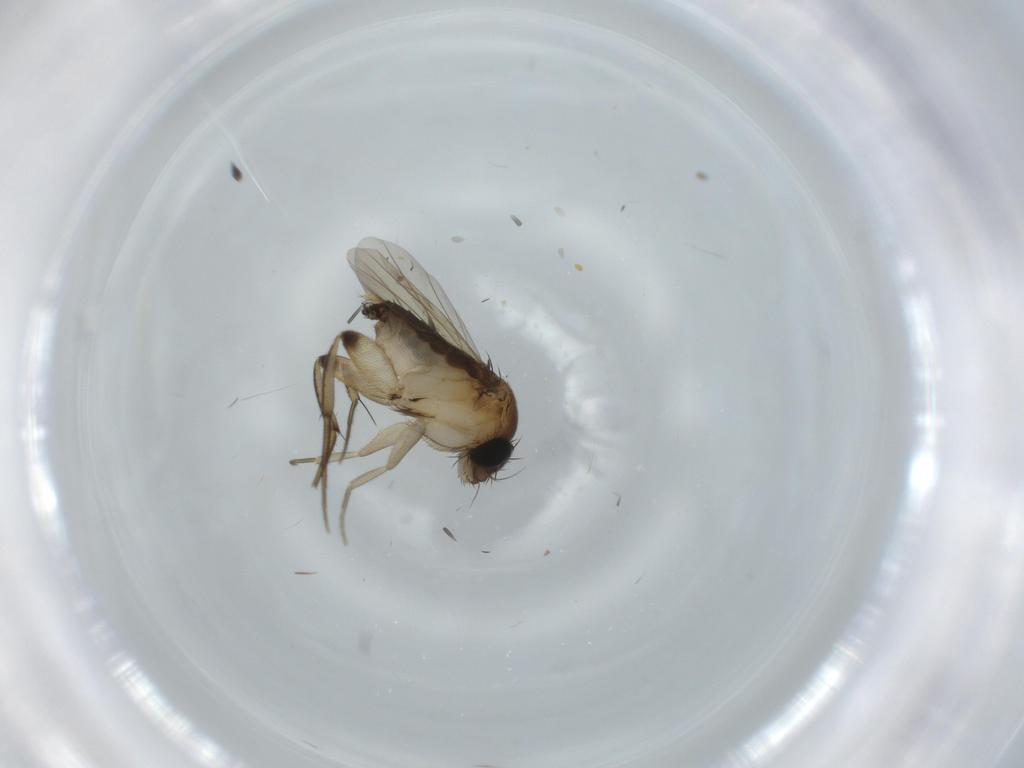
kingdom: Animalia
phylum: Arthropoda
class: Insecta
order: Diptera
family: Phoridae
